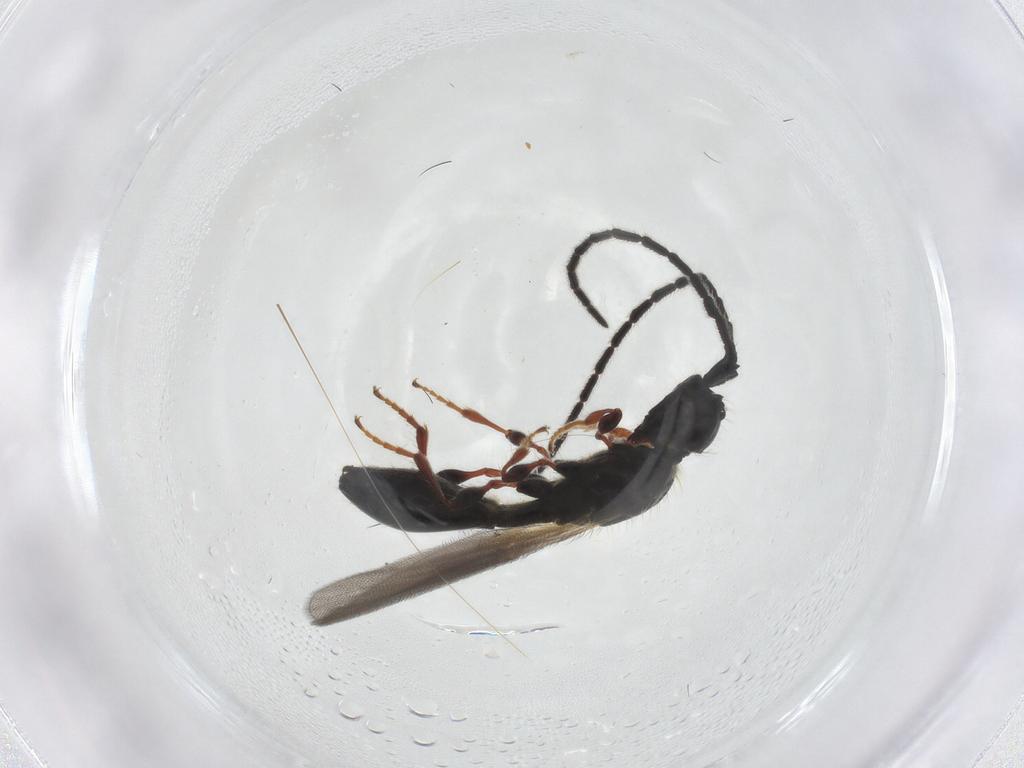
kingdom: Animalia
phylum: Arthropoda
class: Insecta
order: Hymenoptera
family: Diapriidae
